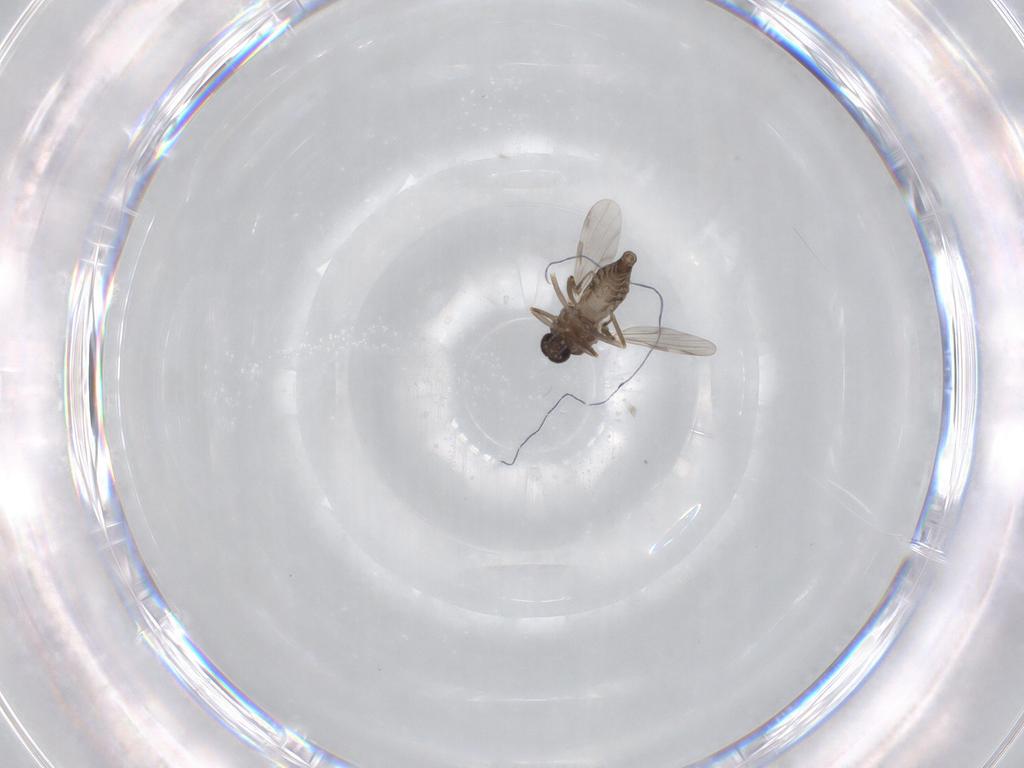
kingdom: Animalia
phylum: Arthropoda
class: Insecta
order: Diptera
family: Ceratopogonidae
